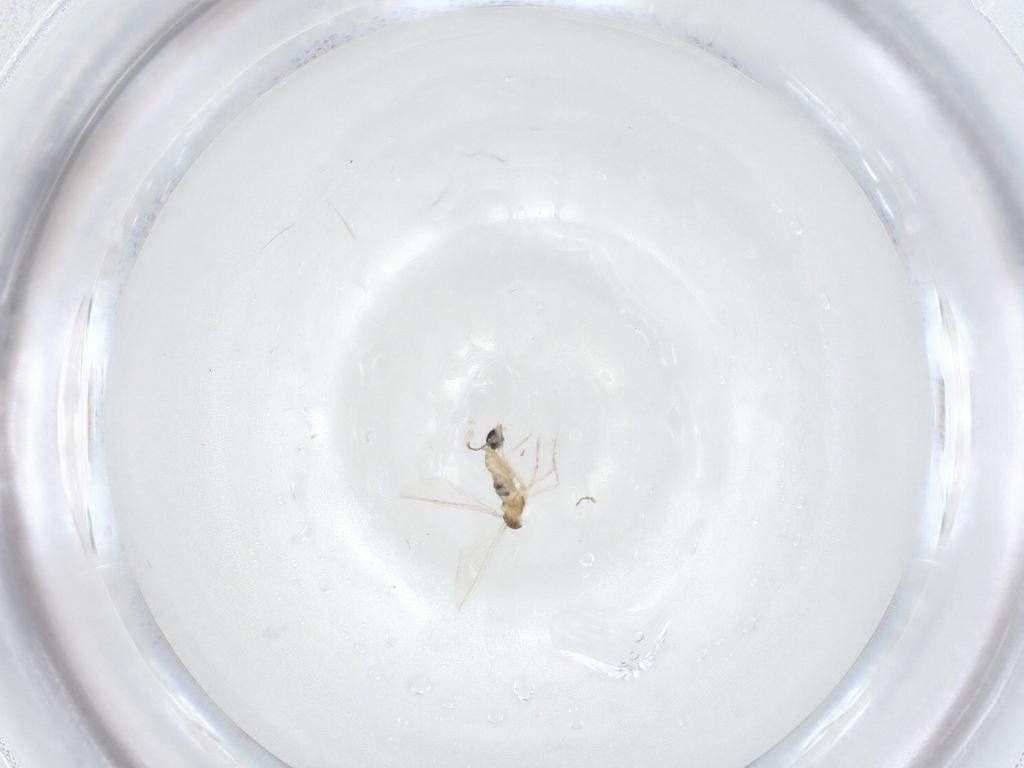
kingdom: Animalia
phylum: Arthropoda
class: Insecta
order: Diptera
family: Cecidomyiidae
